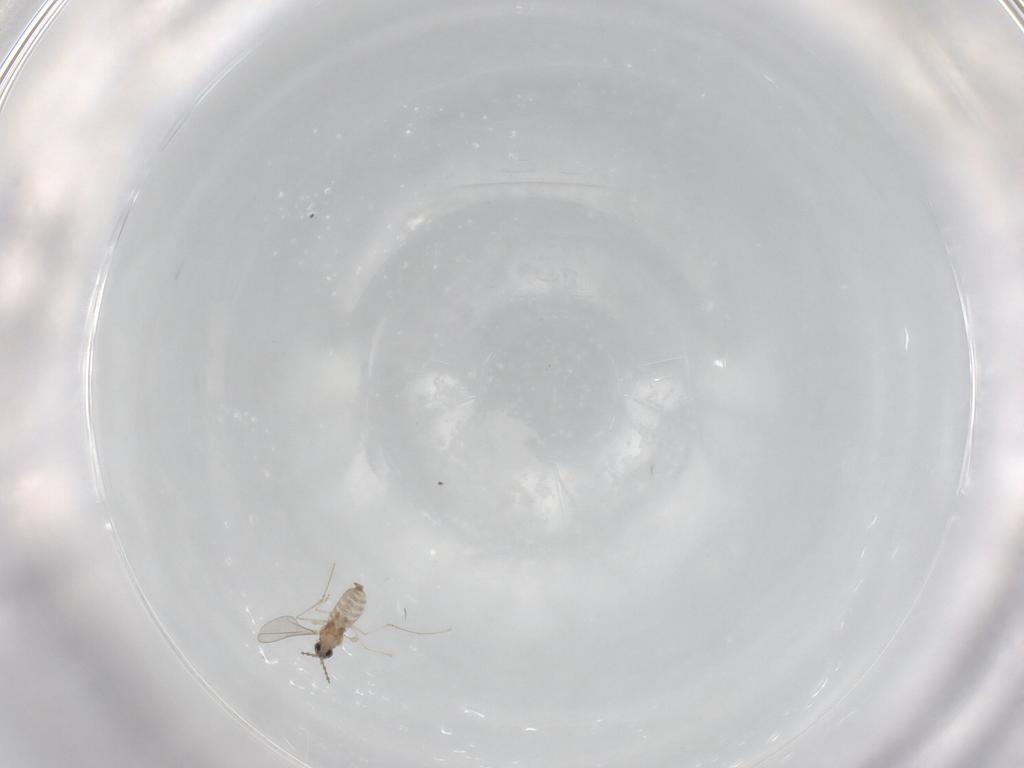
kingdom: Animalia
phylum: Arthropoda
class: Insecta
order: Diptera
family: Cecidomyiidae
